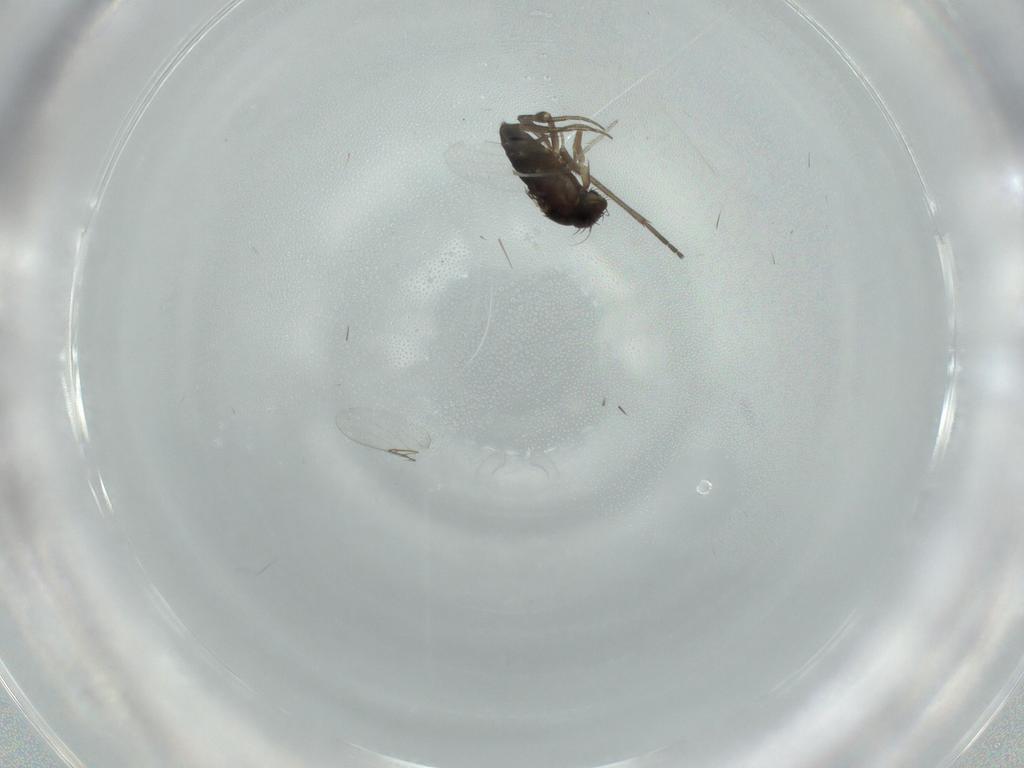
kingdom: Animalia
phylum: Arthropoda
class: Insecta
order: Diptera
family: Phoridae
